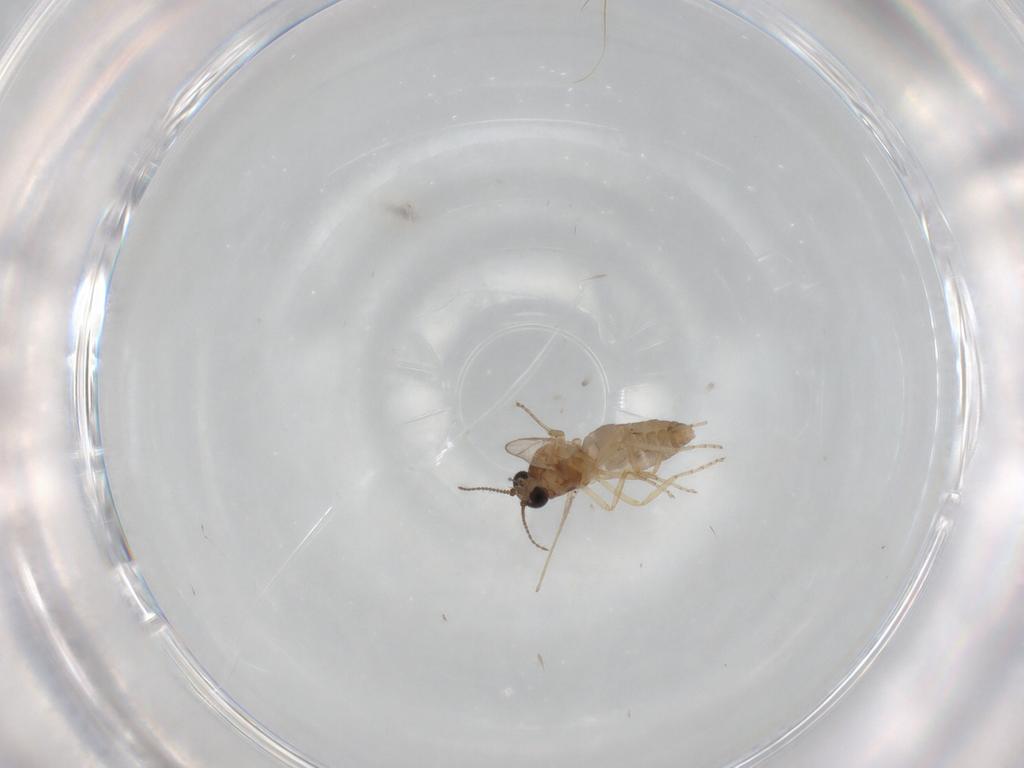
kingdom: Animalia
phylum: Arthropoda
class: Insecta
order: Diptera
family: Ceratopogonidae
